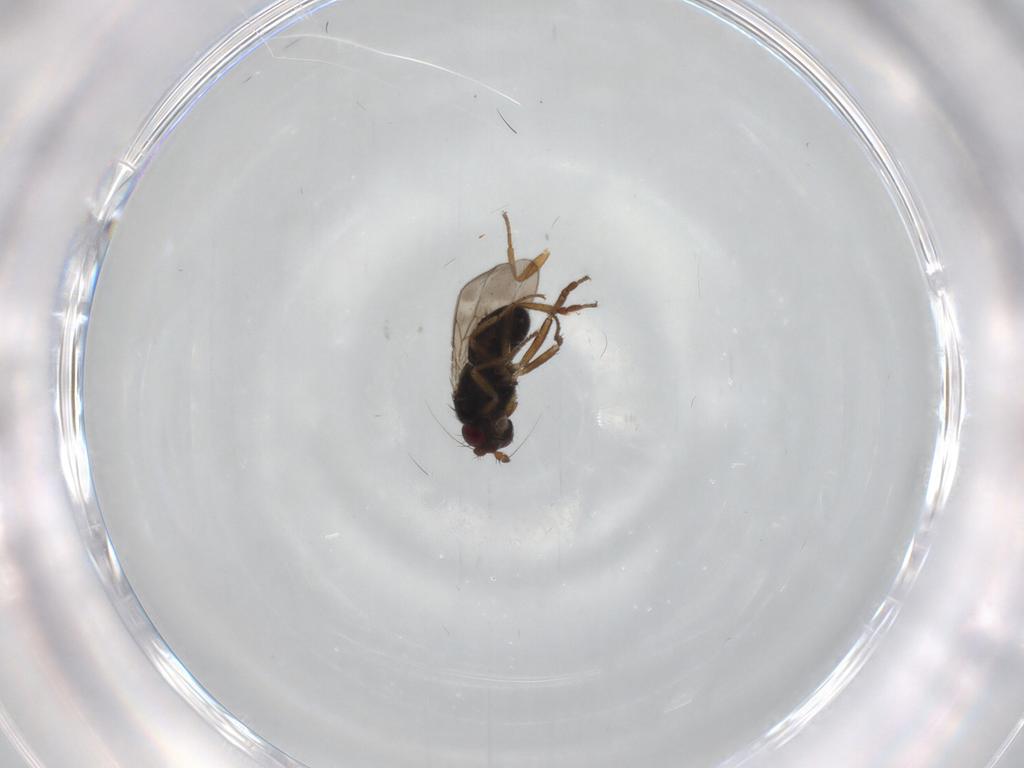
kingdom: Animalia
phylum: Arthropoda
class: Insecta
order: Diptera
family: Sphaeroceridae
